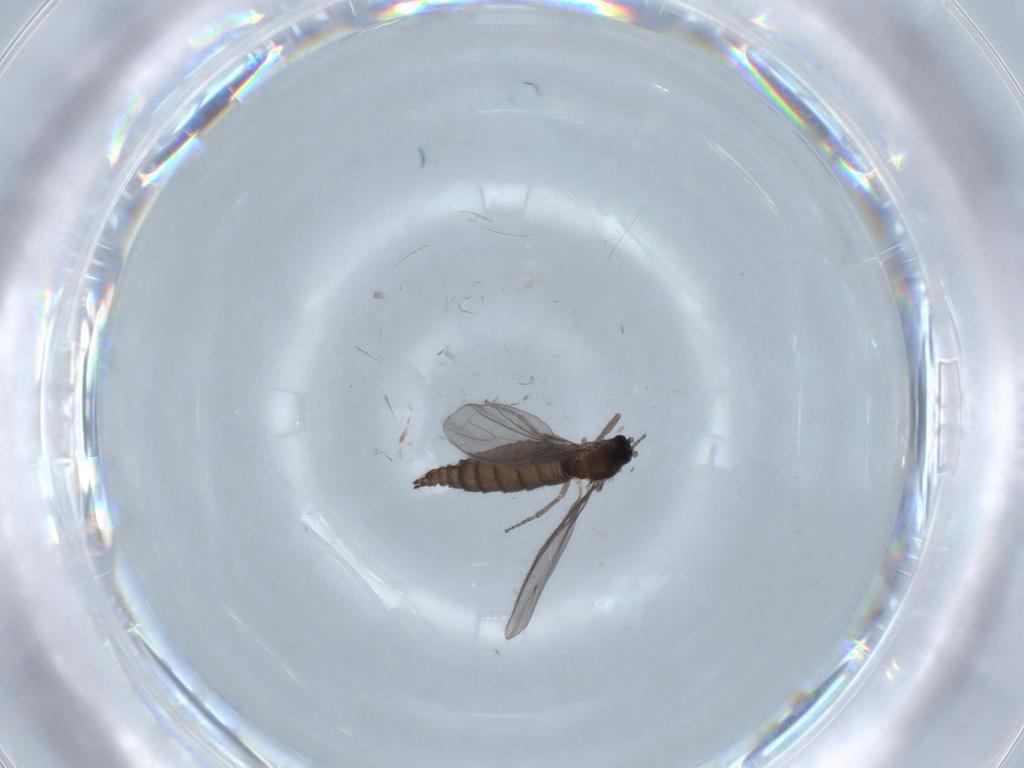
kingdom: Animalia
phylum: Arthropoda
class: Insecta
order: Diptera
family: Sciaridae
